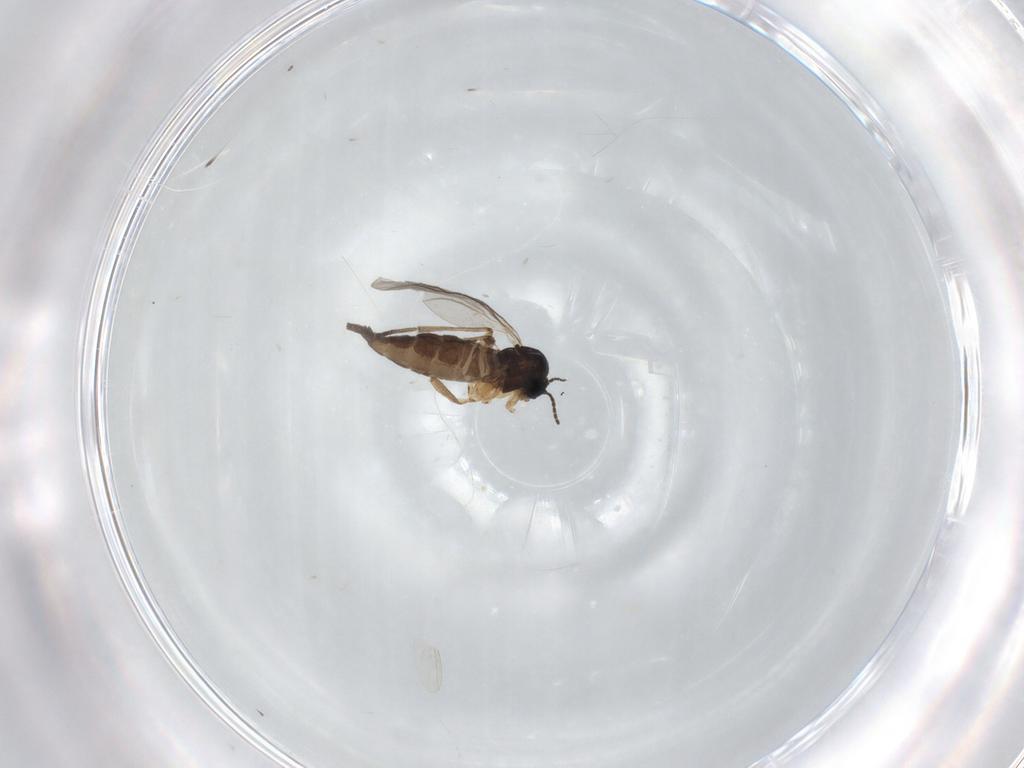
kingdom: Animalia
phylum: Arthropoda
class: Insecta
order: Diptera
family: Sciaridae
